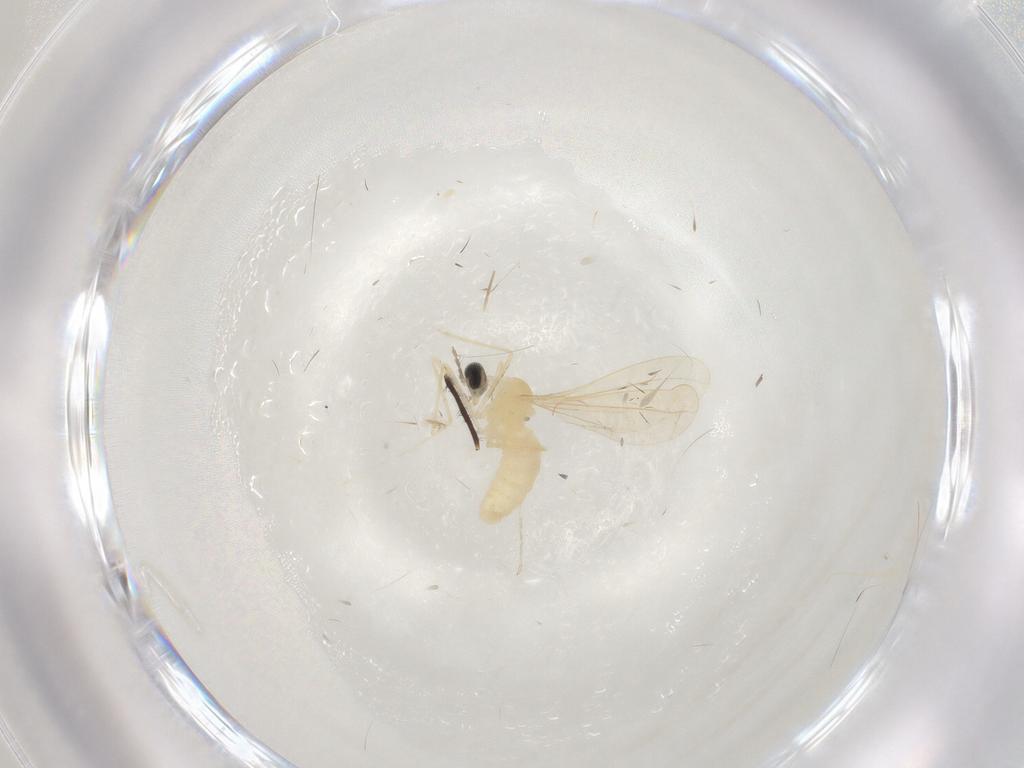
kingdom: Animalia
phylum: Arthropoda
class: Insecta
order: Diptera
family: Cecidomyiidae
